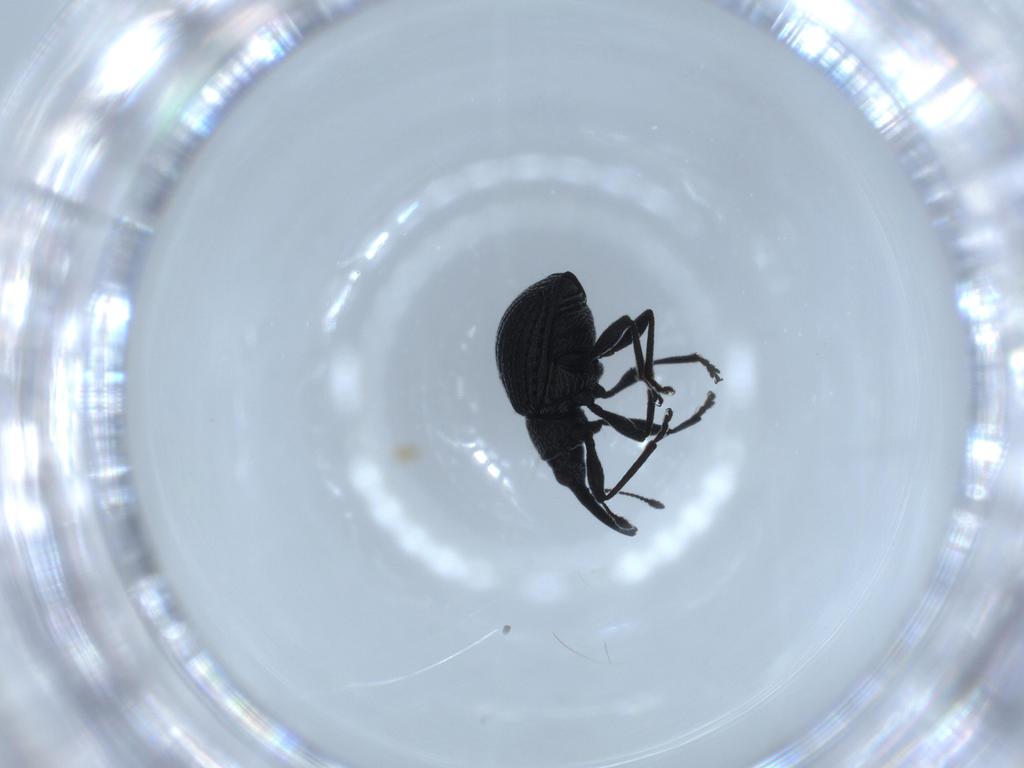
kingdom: Animalia
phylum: Arthropoda
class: Insecta
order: Coleoptera
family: Brentidae
